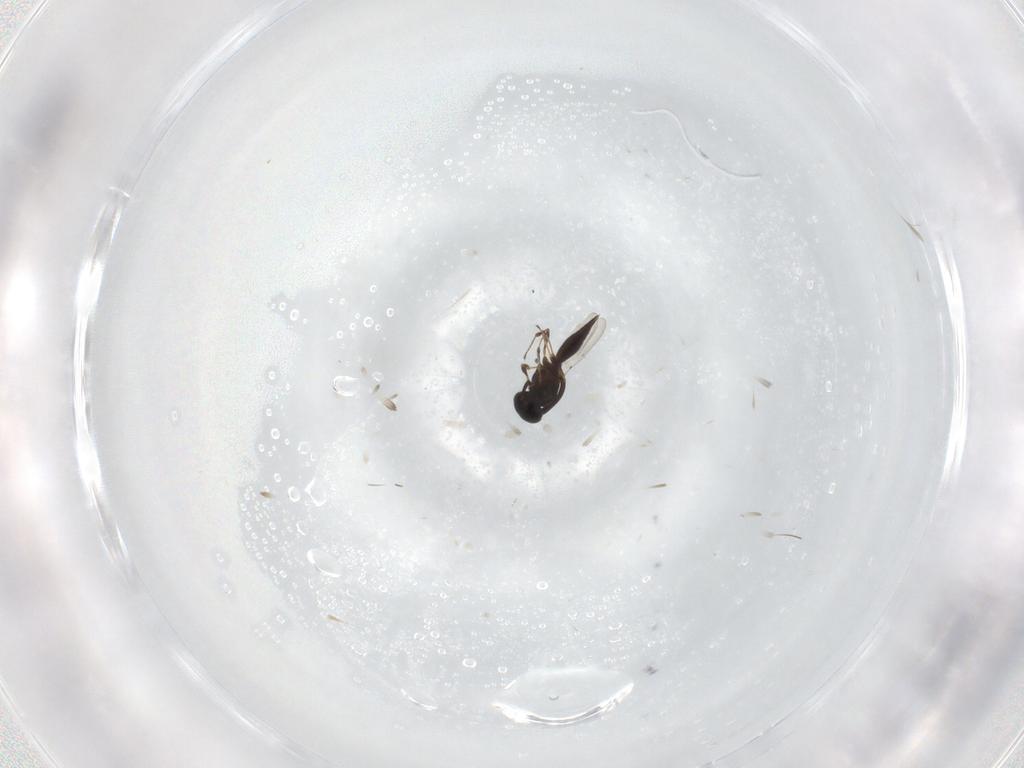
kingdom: Animalia
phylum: Arthropoda
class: Insecta
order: Hymenoptera
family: Platygastridae
